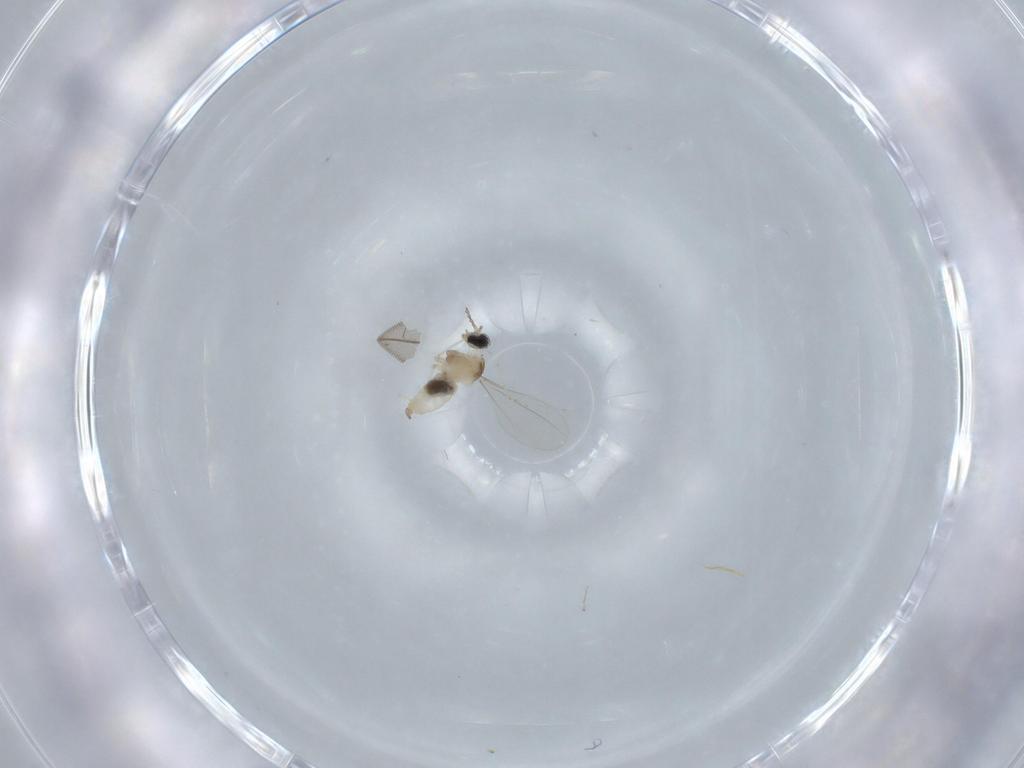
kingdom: Animalia
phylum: Arthropoda
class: Insecta
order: Diptera
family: Cecidomyiidae
